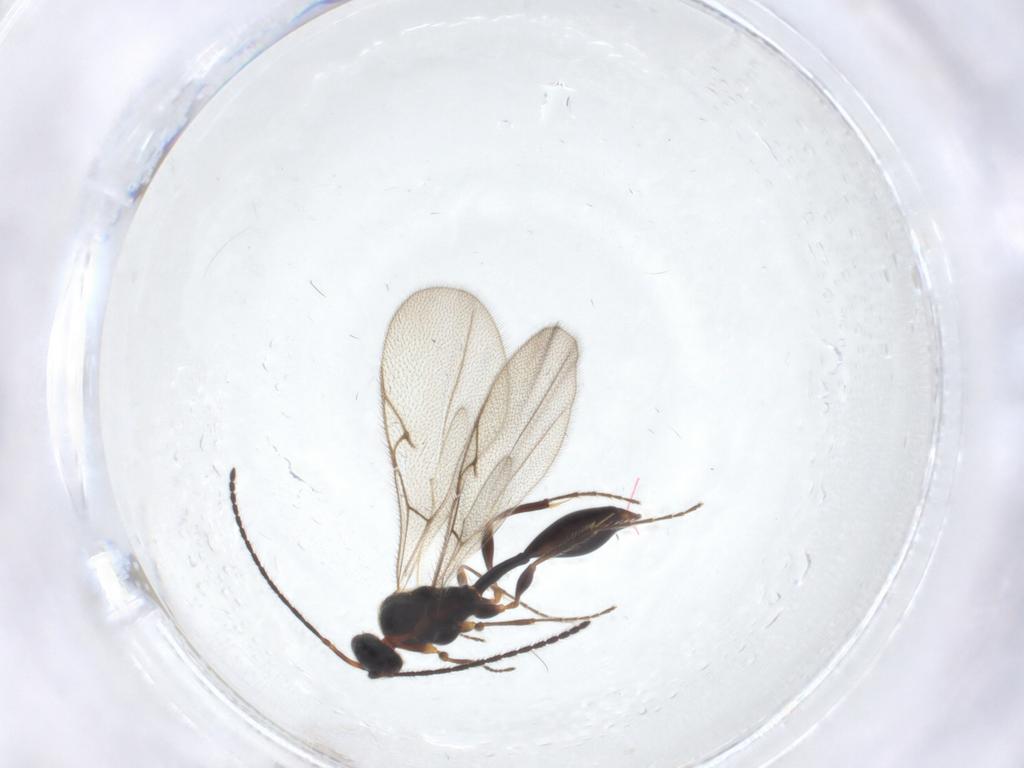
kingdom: Animalia
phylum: Arthropoda
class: Insecta
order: Hymenoptera
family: Diapriidae
